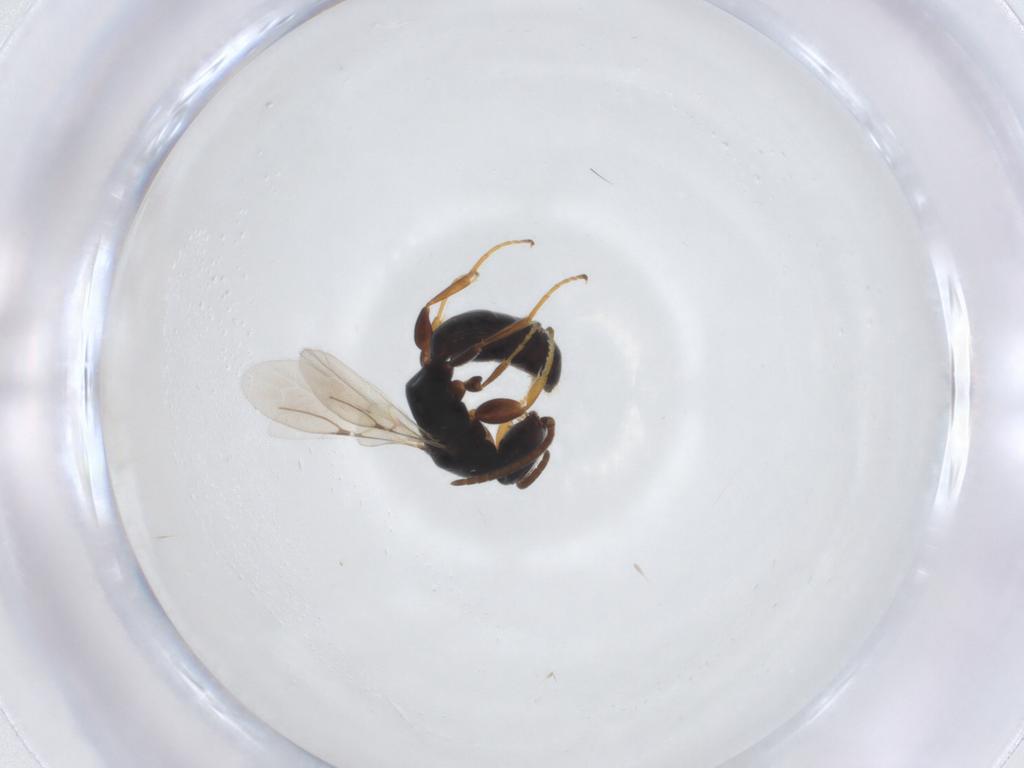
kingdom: Animalia
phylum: Arthropoda
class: Insecta
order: Hymenoptera
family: Bethylidae
